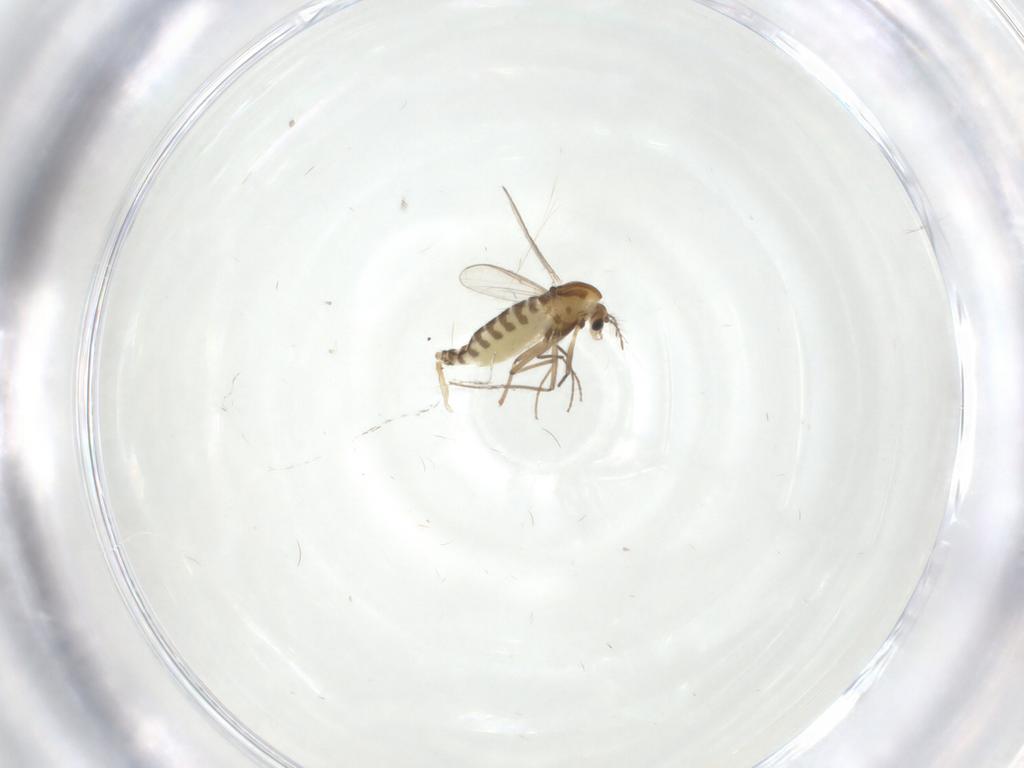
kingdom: Animalia
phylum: Arthropoda
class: Insecta
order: Diptera
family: Chironomidae
